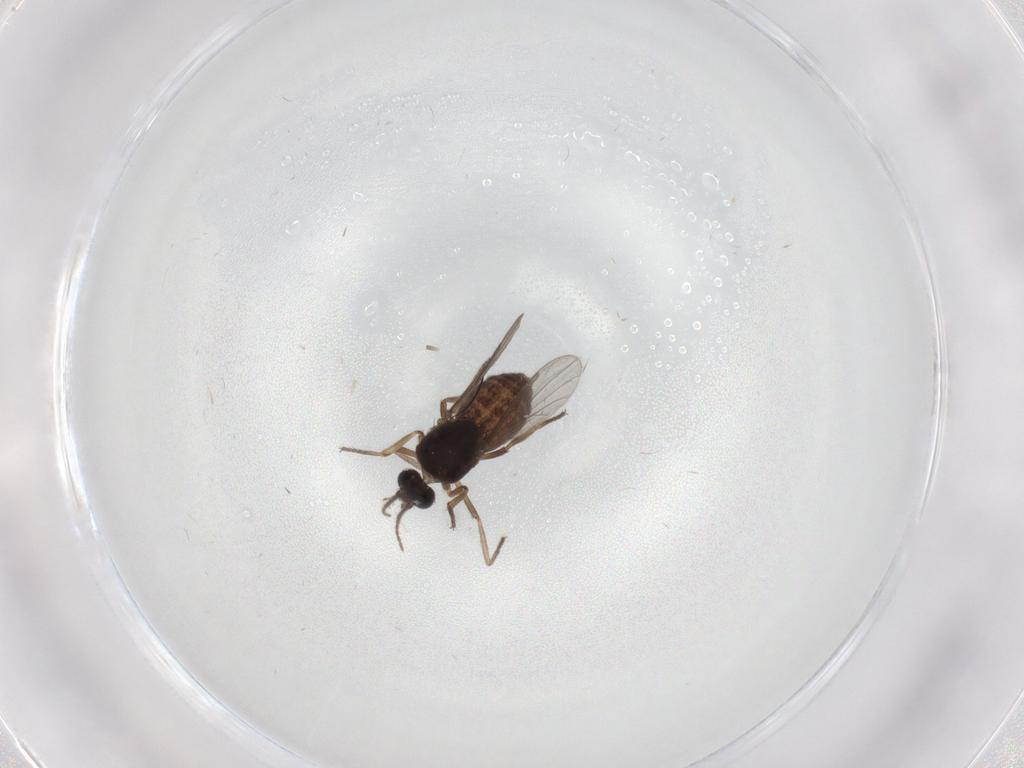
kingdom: Animalia
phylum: Arthropoda
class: Insecta
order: Diptera
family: Ceratopogonidae
